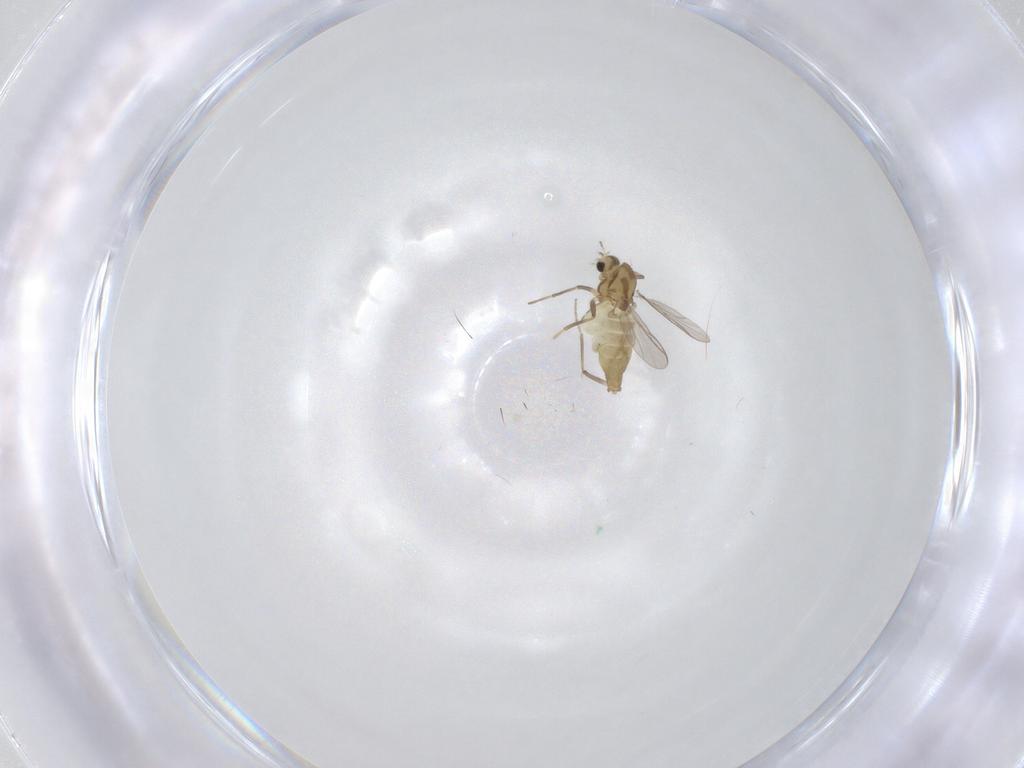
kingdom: Animalia
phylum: Arthropoda
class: Insecta
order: Diptera
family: Chironomidae
